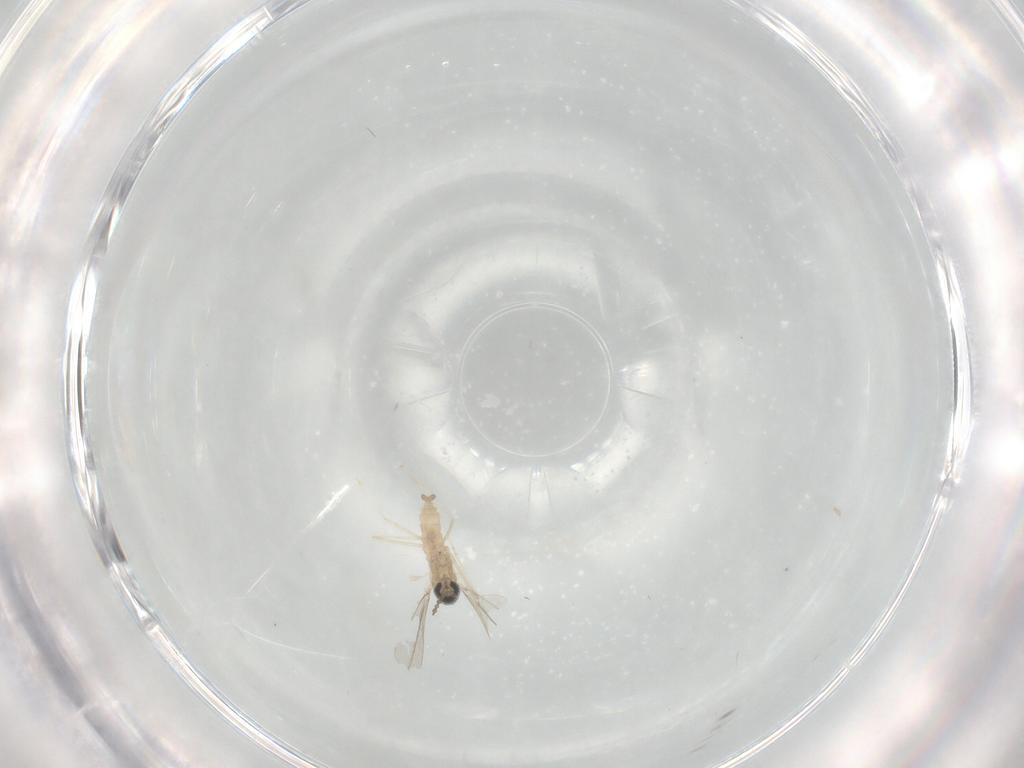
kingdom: Animalia
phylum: Arthropoda
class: Insecta
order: Diptera
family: Cecidomyiidae
